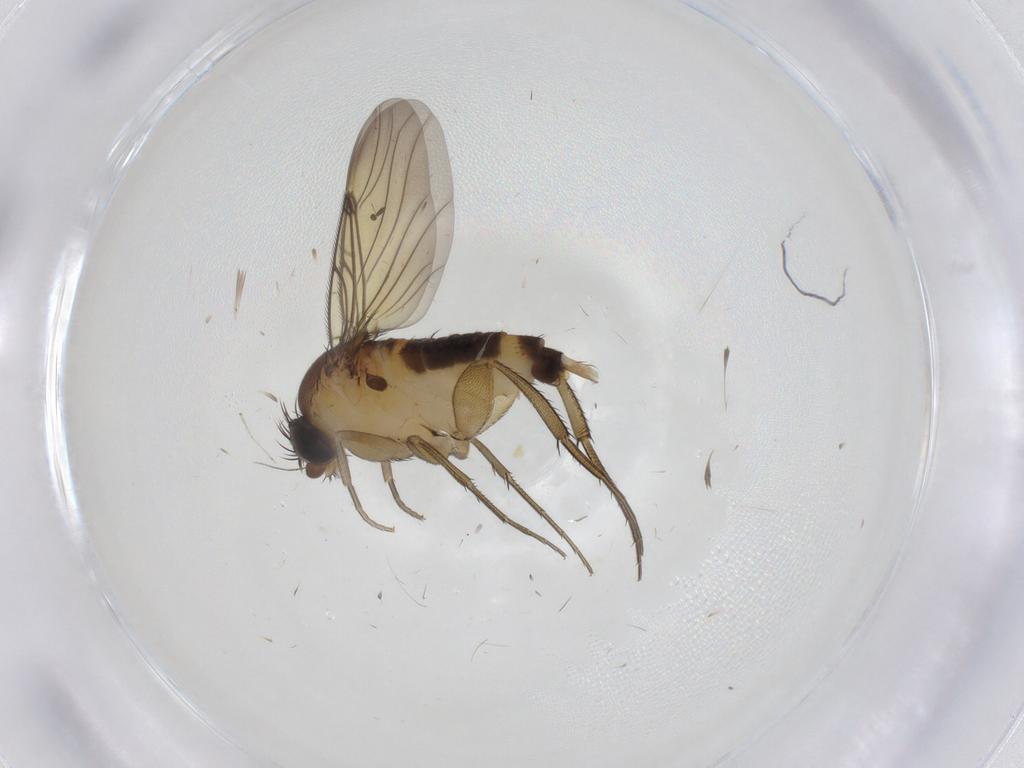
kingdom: Animalia
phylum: Arthropoda
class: Insecta
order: Diptera
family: Phoridae
